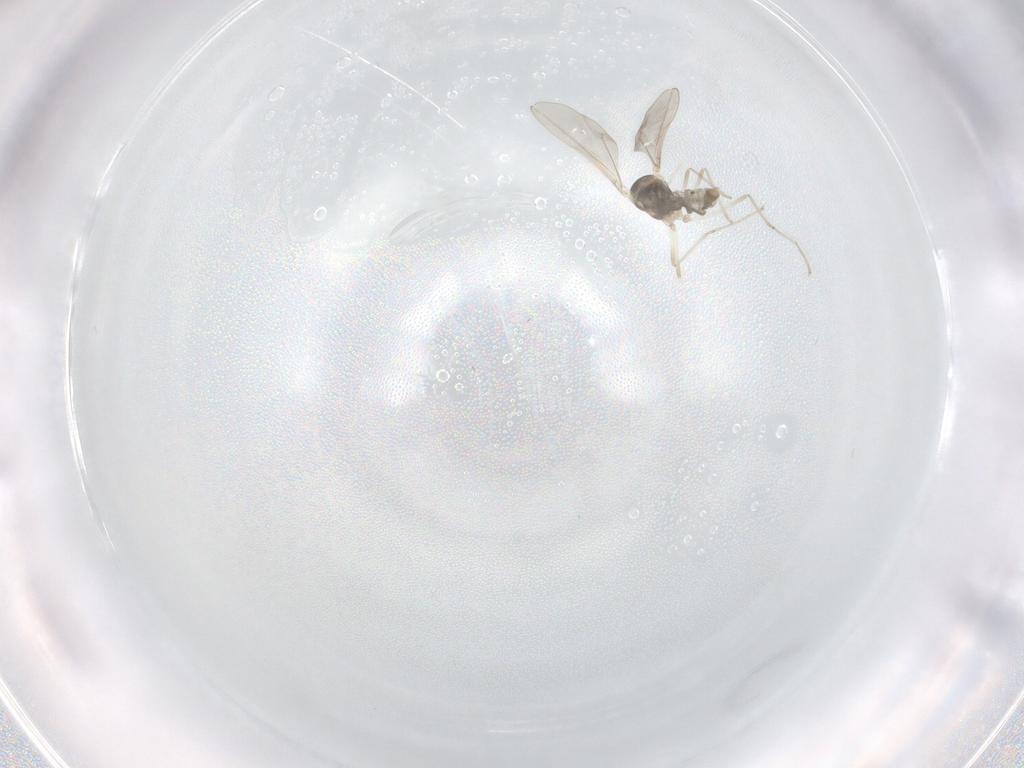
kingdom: Animalia
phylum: Arthropoda
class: Insecta
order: Diptera
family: Cecidomyiidae
